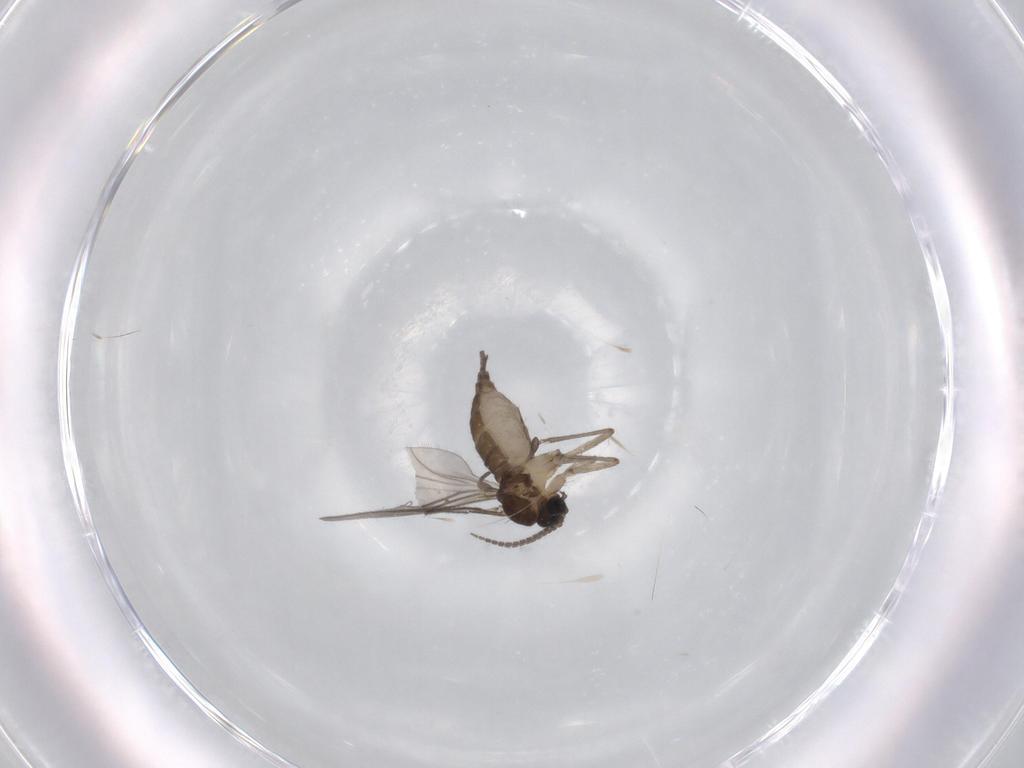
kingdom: Animalia
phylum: Arthropoda
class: Insecta
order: Diptera
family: Sciaridae
